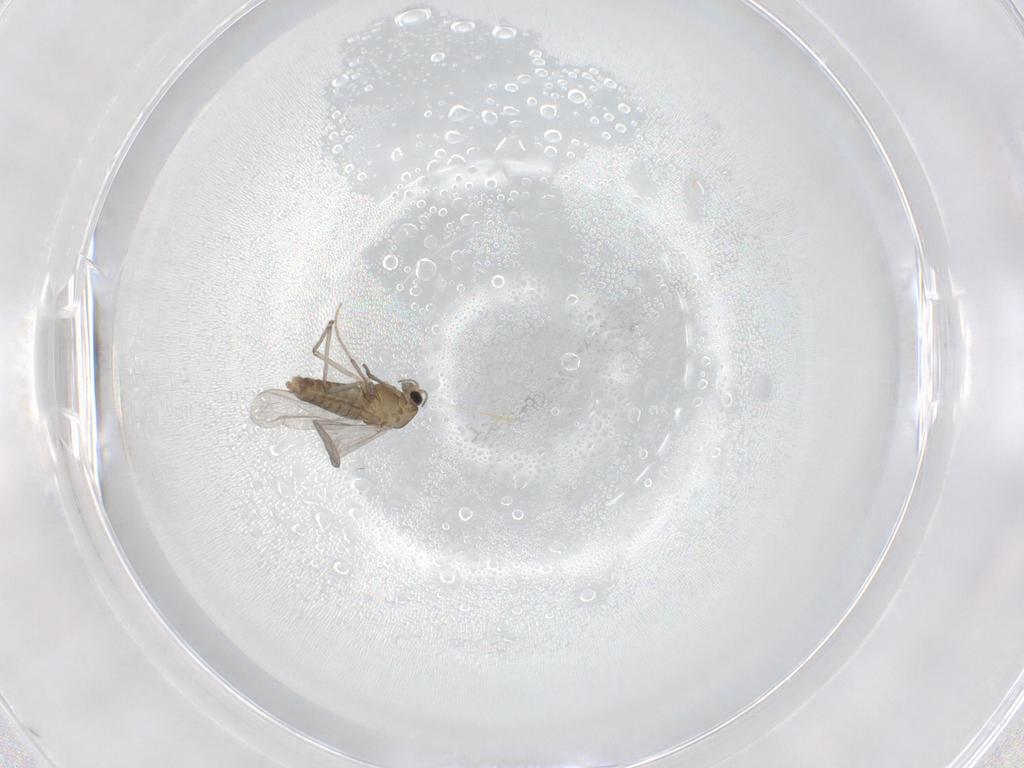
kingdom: Animalia
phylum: Arthropoda
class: Insecta
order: Diptera
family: Chironomidae
